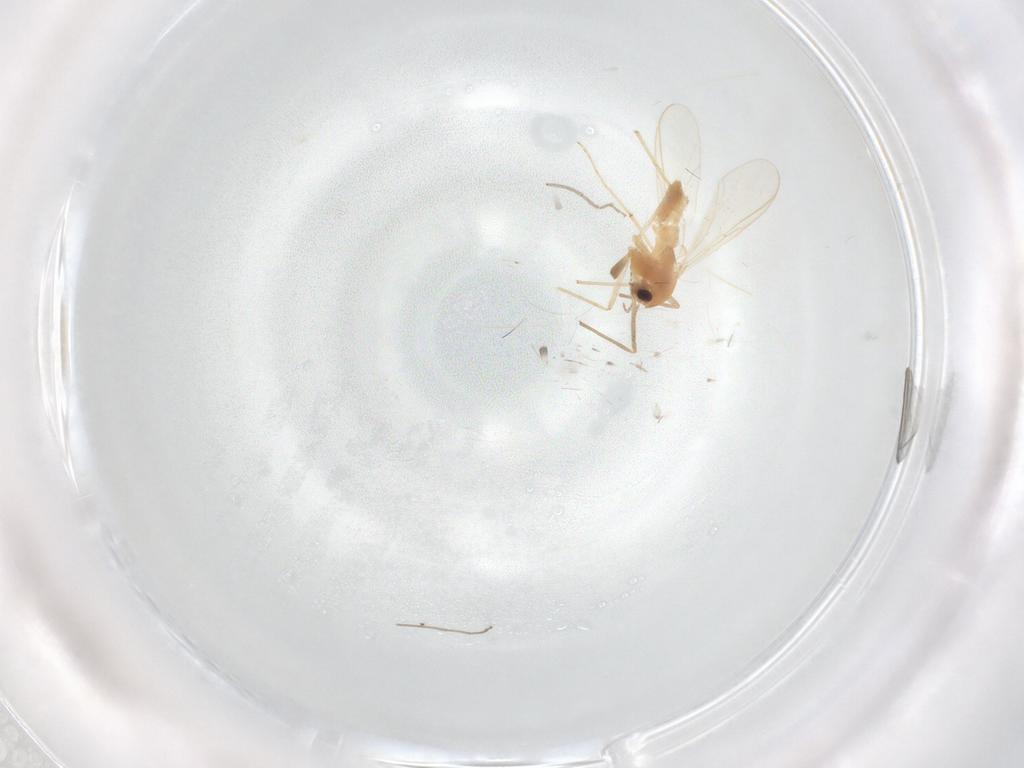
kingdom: Animalia
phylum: Arthropoda
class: Insecta
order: Diptera
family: Chironomidae
